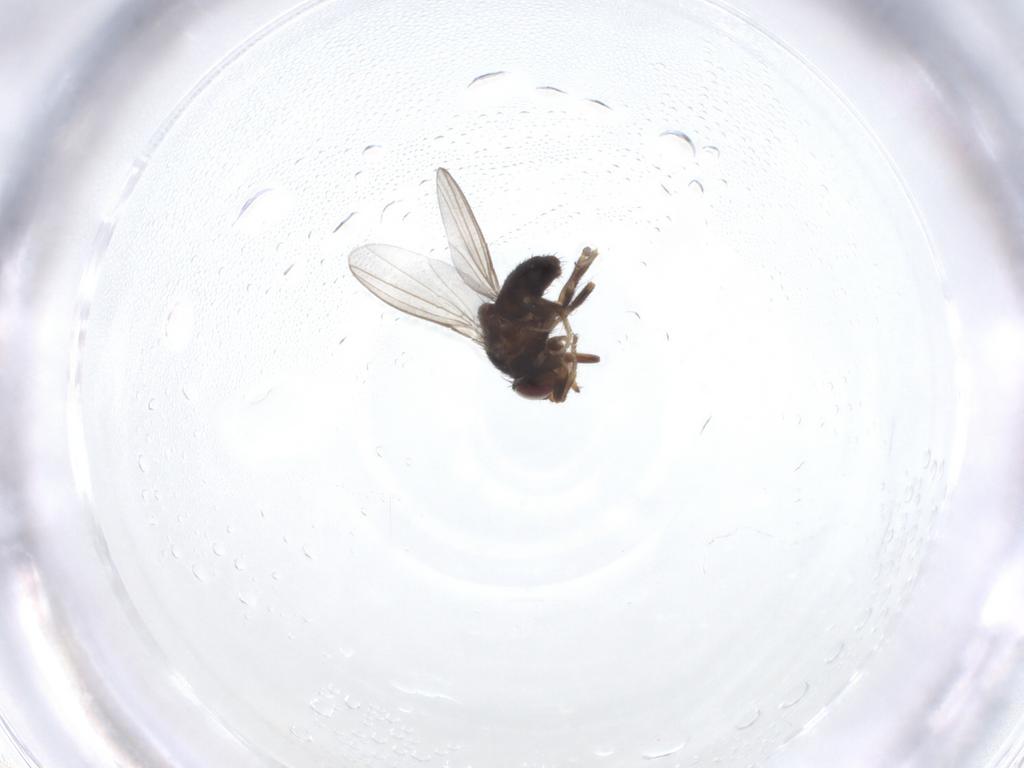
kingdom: Animalia
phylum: Arthropoda
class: Insecta
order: Diptera
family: Milichiidae
